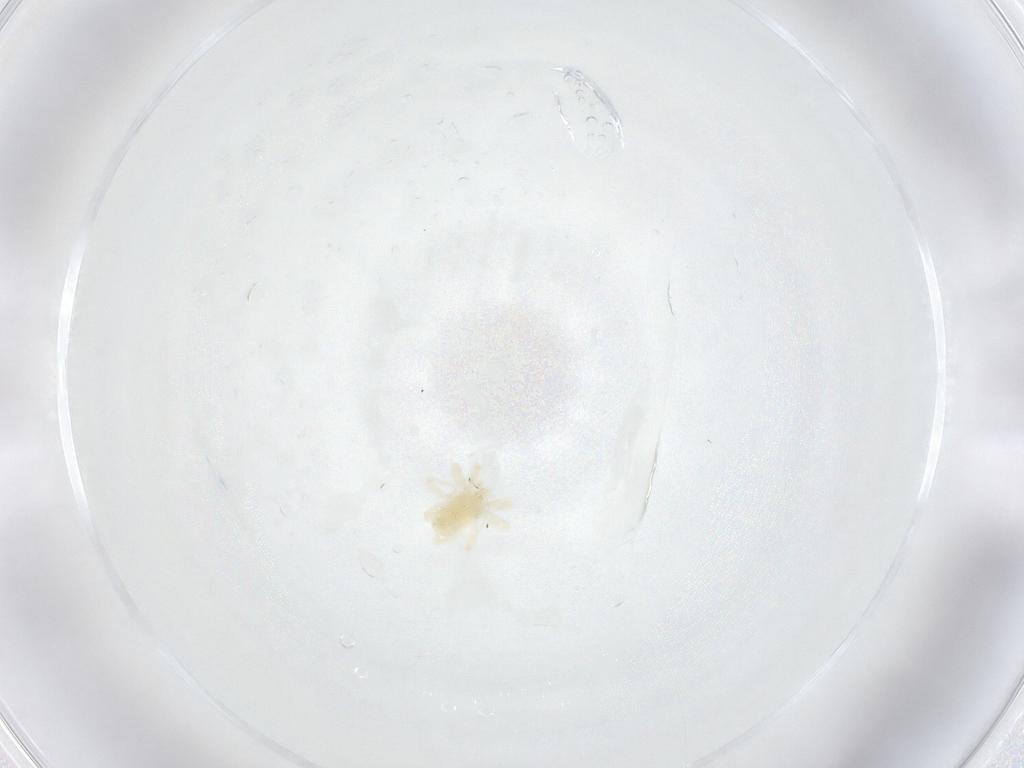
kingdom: Animalia
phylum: Arthropoda
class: Arachnida
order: Trombidiformes
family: Anystidae
